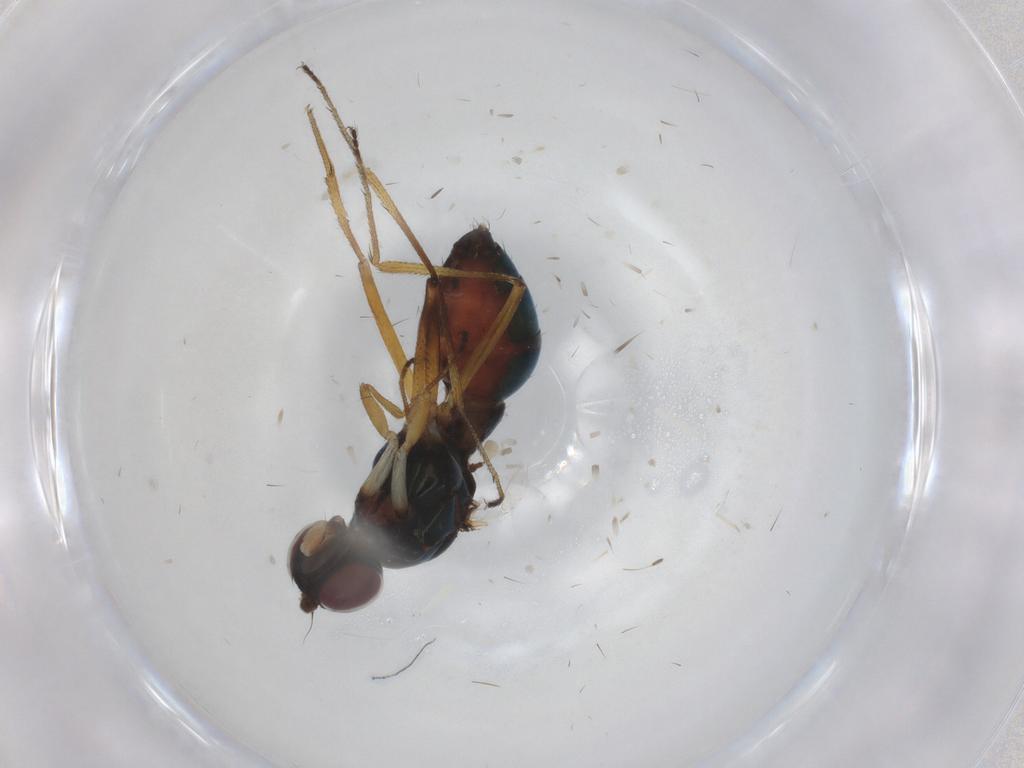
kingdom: Animalia
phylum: Arthropoda
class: Insecta
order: Diptera
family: Sepsidae
